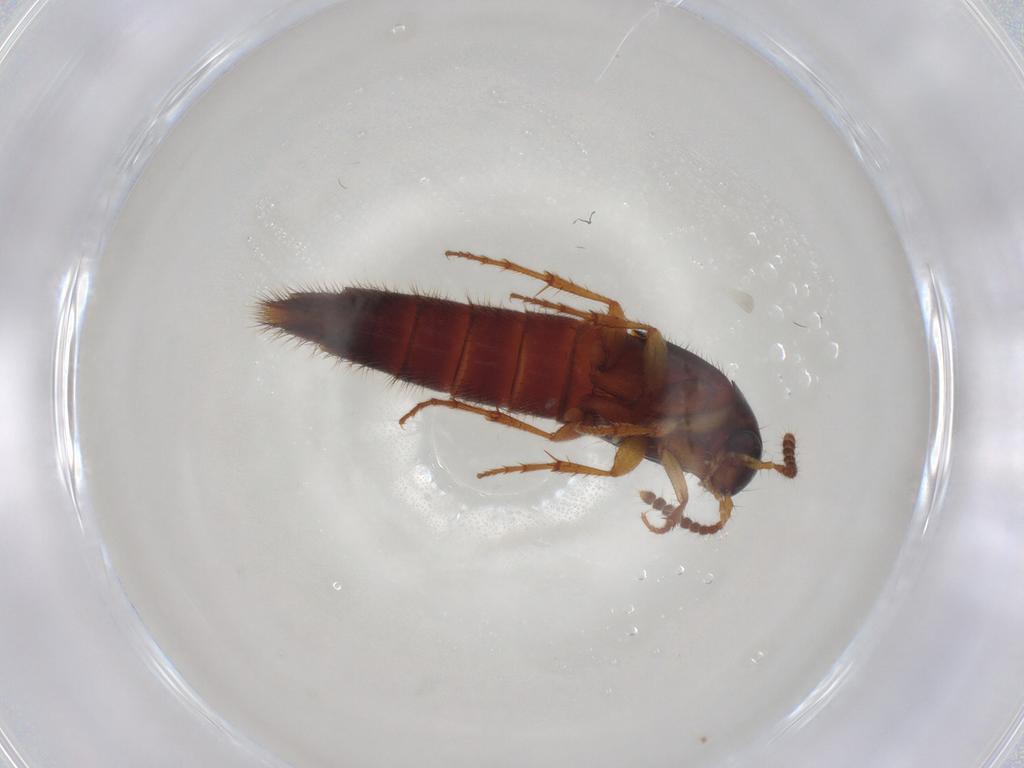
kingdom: Animalia
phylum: Arthropoda
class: Insecta
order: Coleoptera
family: Staphylinidae
